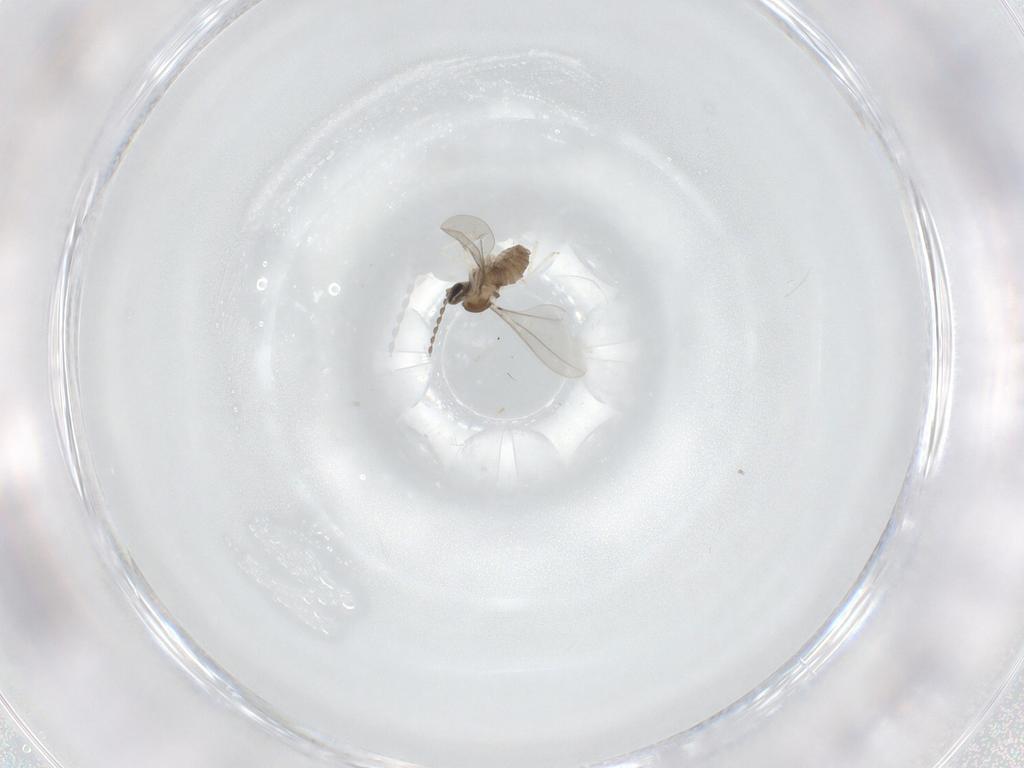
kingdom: Animalia
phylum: Arthropoda
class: Insecta
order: Diptera
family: Cecidomyiidae
